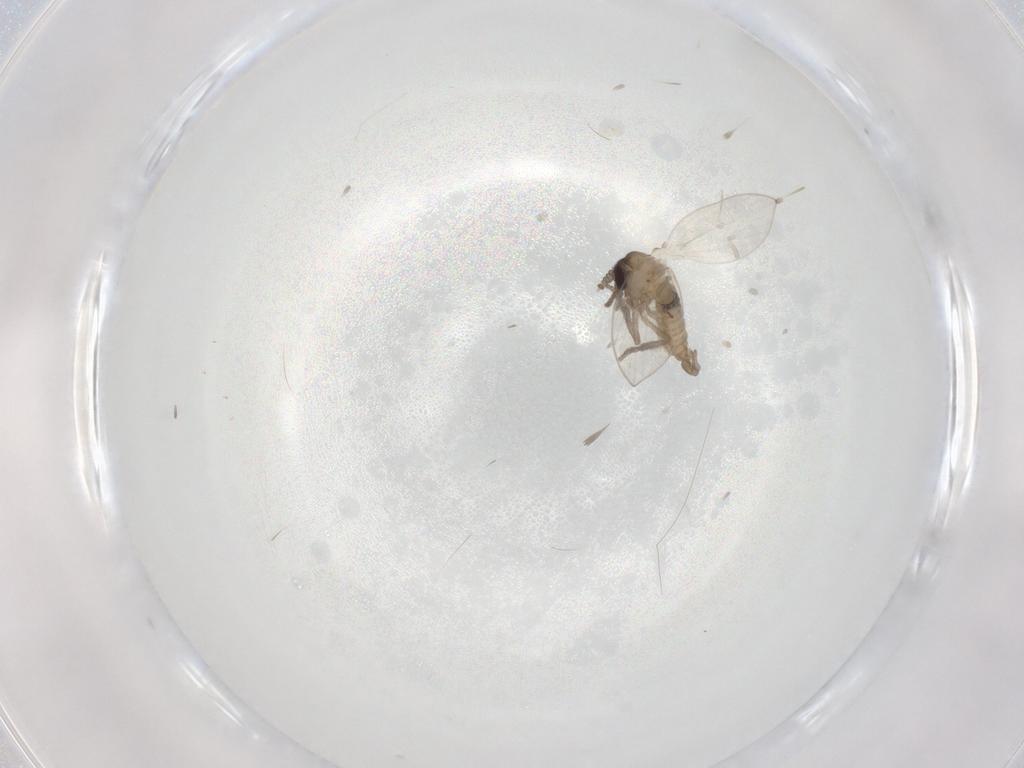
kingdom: Animalia
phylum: Arthropoda
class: Insecta
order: Diptera
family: Psychodidae
